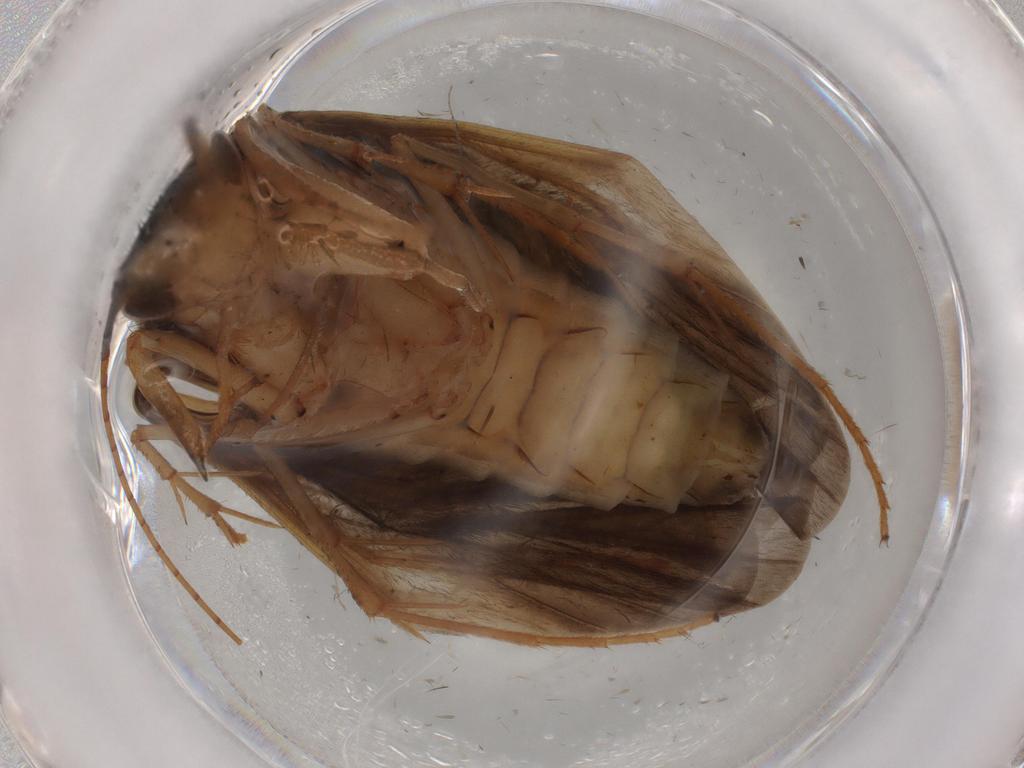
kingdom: Animalia
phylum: Arthropoda
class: Insecta
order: Trichoptera
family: Hydropsychidae
